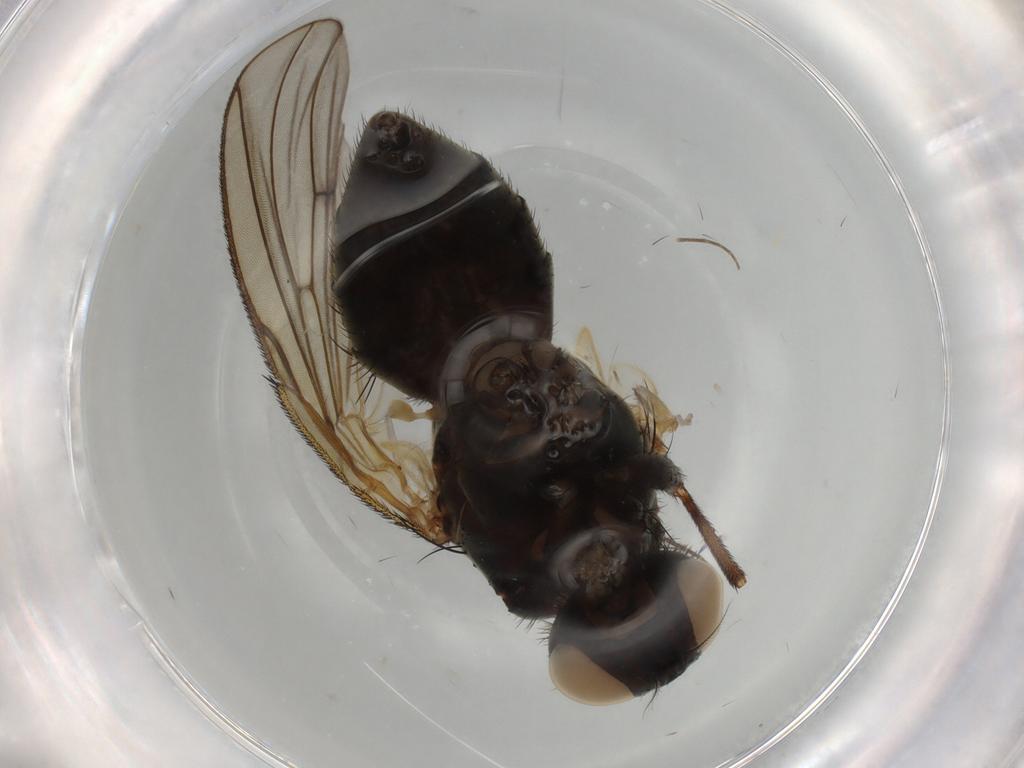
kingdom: Animalia
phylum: Arthropoda
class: Insecta
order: Diptera
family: Muscidae
